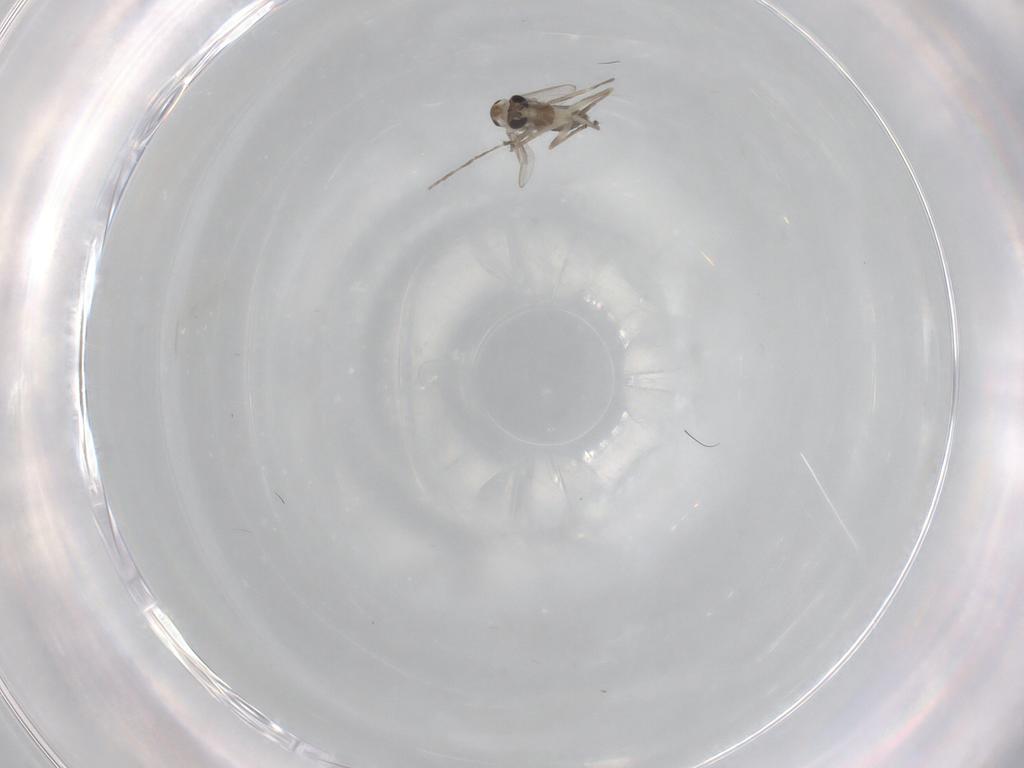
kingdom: Animalia
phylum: Arthropoda
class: Insecta
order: Diptera
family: Chironomidae
